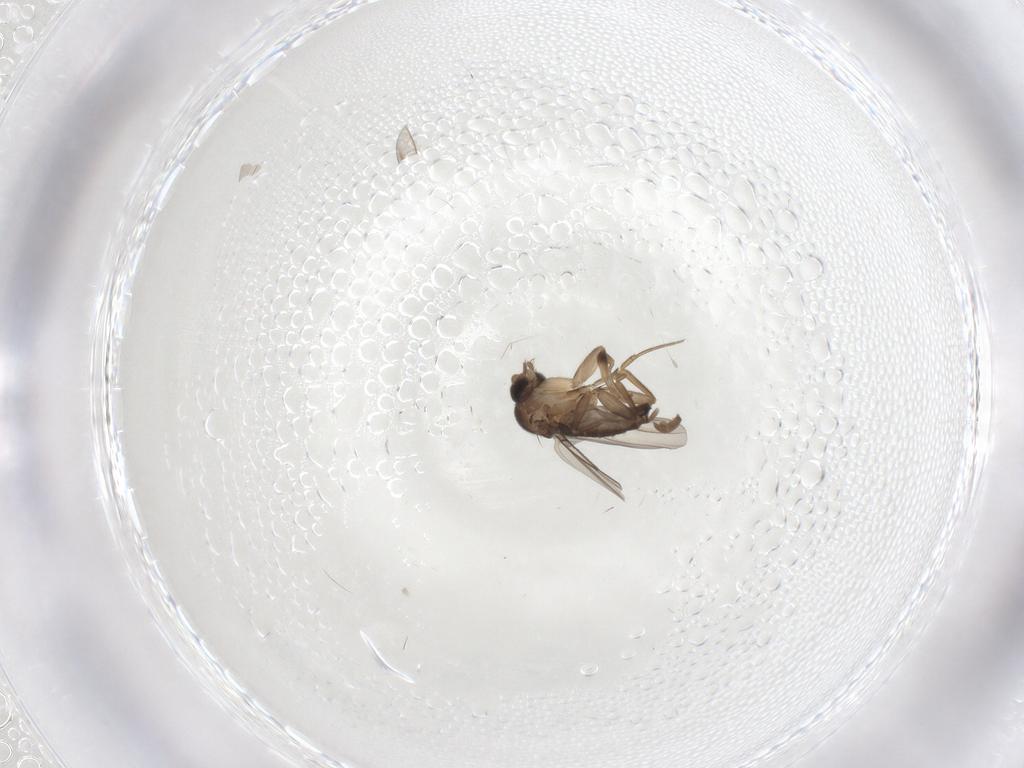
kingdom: Animalia
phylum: Arthropoda
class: Insecta
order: Diptera
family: Phoridae
